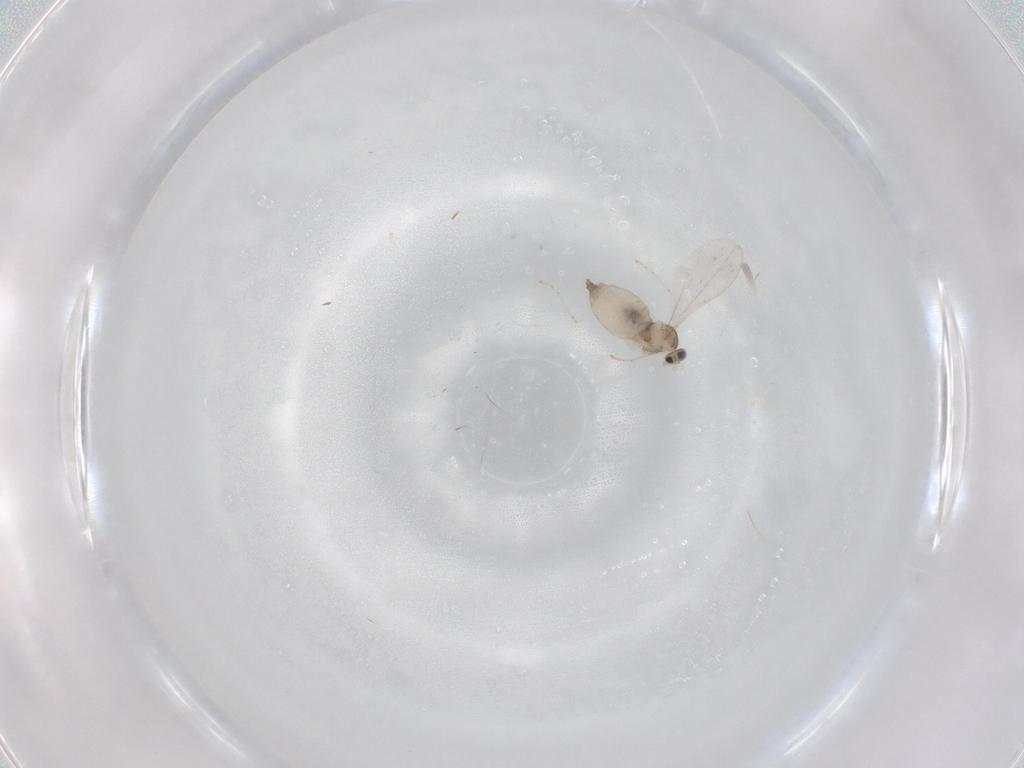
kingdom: Animalia
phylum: Arthropoda
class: Insecta
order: Diptera
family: Cecidomyiidae
